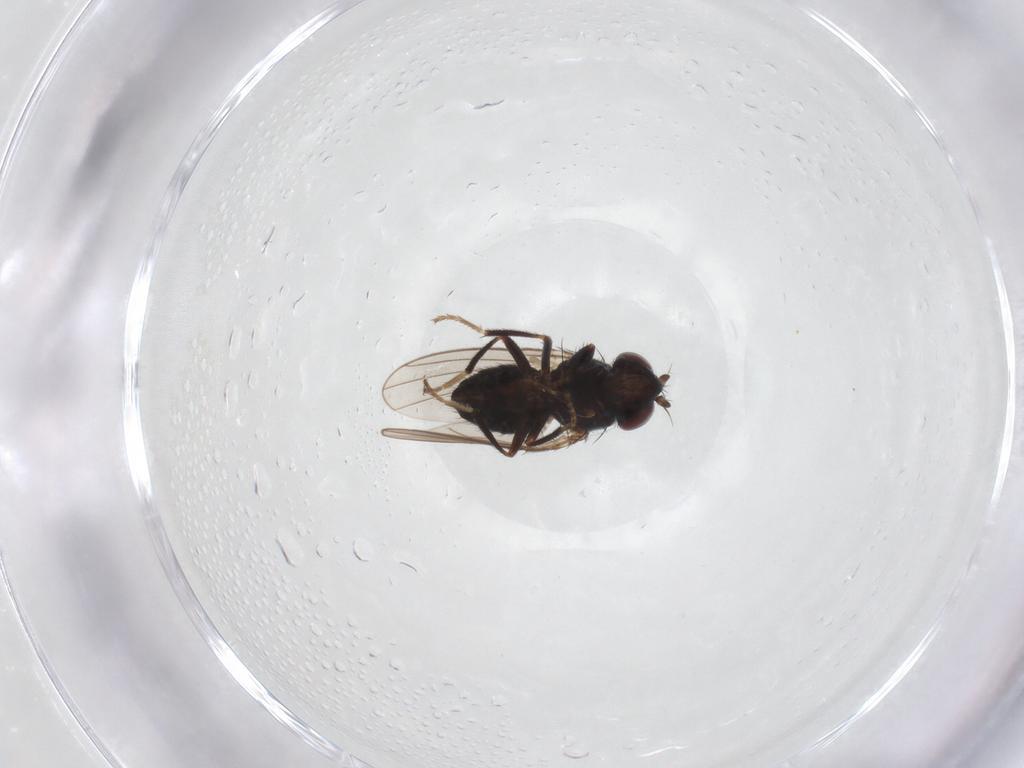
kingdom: Animalia
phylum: Arthropoda
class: Insecta
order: Diptera
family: Ephydridae
